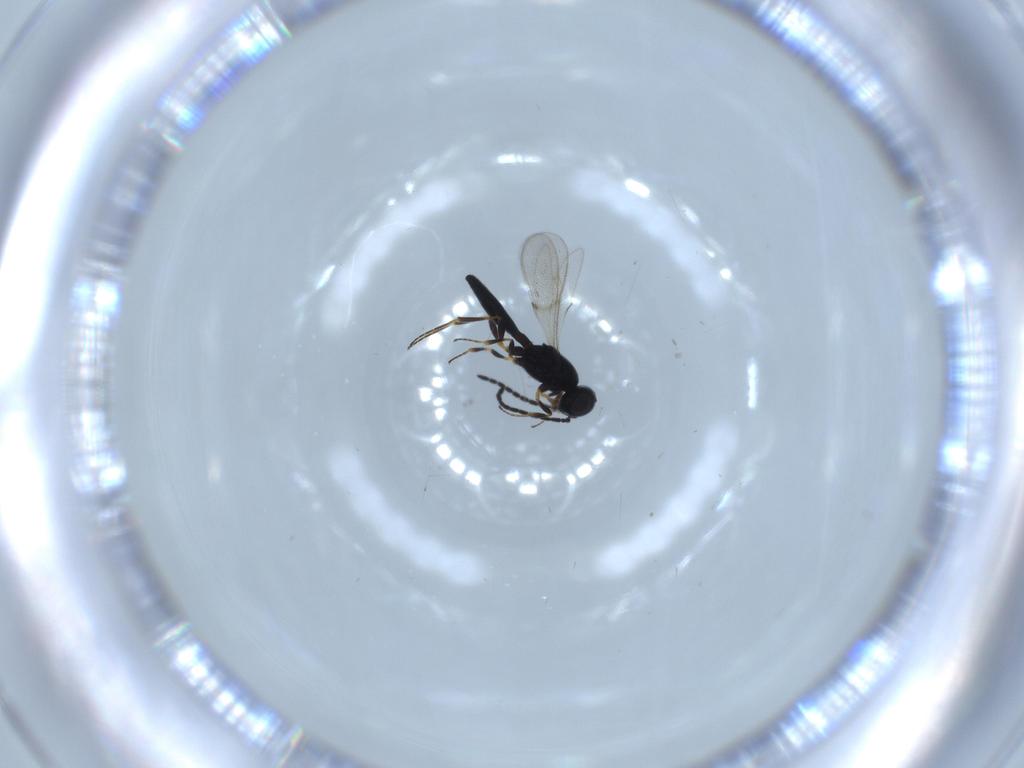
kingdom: Animalia
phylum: Arthropoda
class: Insecta
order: Hymenoptera
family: Eupelmidae
